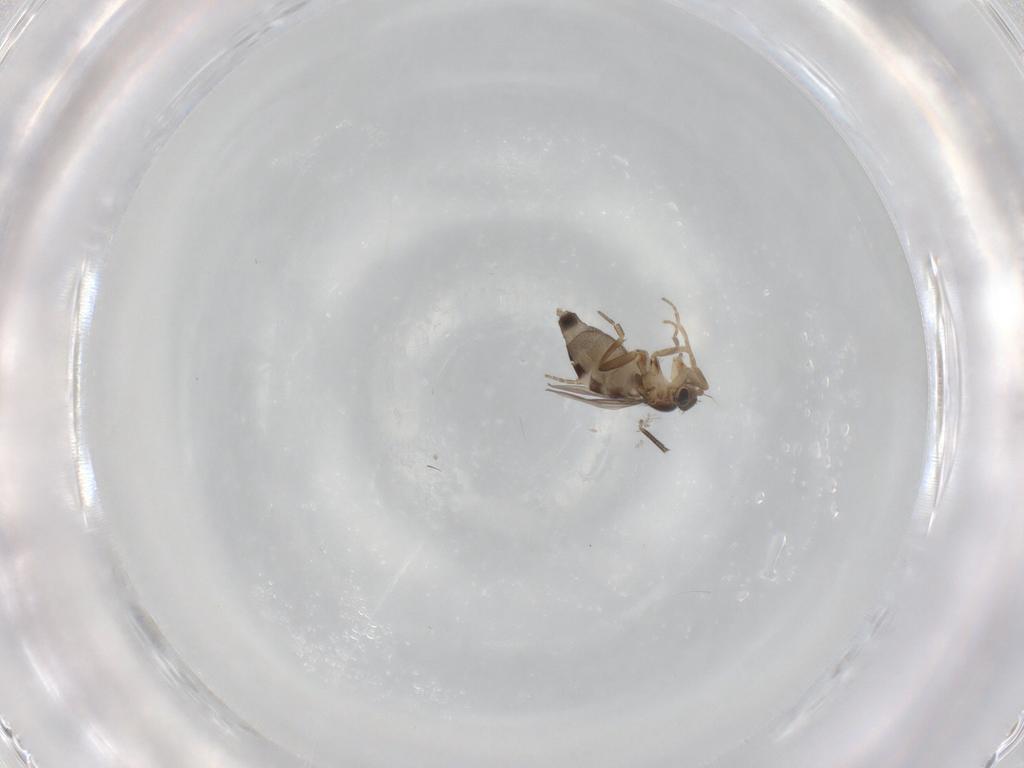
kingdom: Animalia
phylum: Arthropoda
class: Insecta
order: Diptera
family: Phoridae
